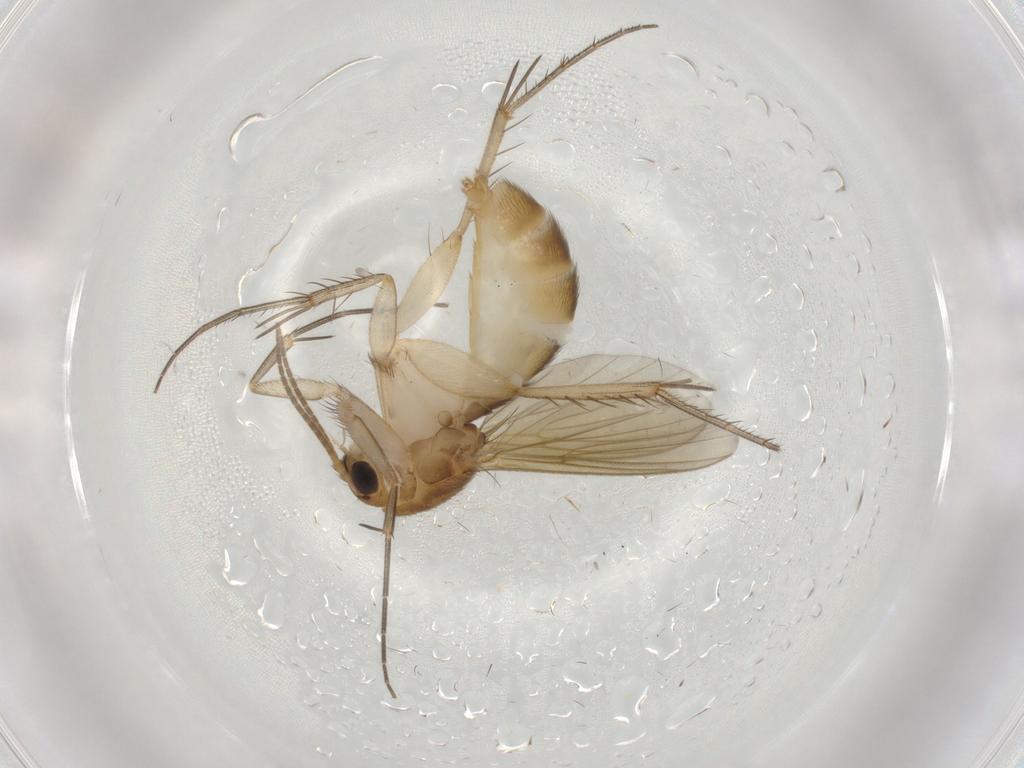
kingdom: Animalia
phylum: Arthropoda
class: Insecta
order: Diptera
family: Mycetophilidae
